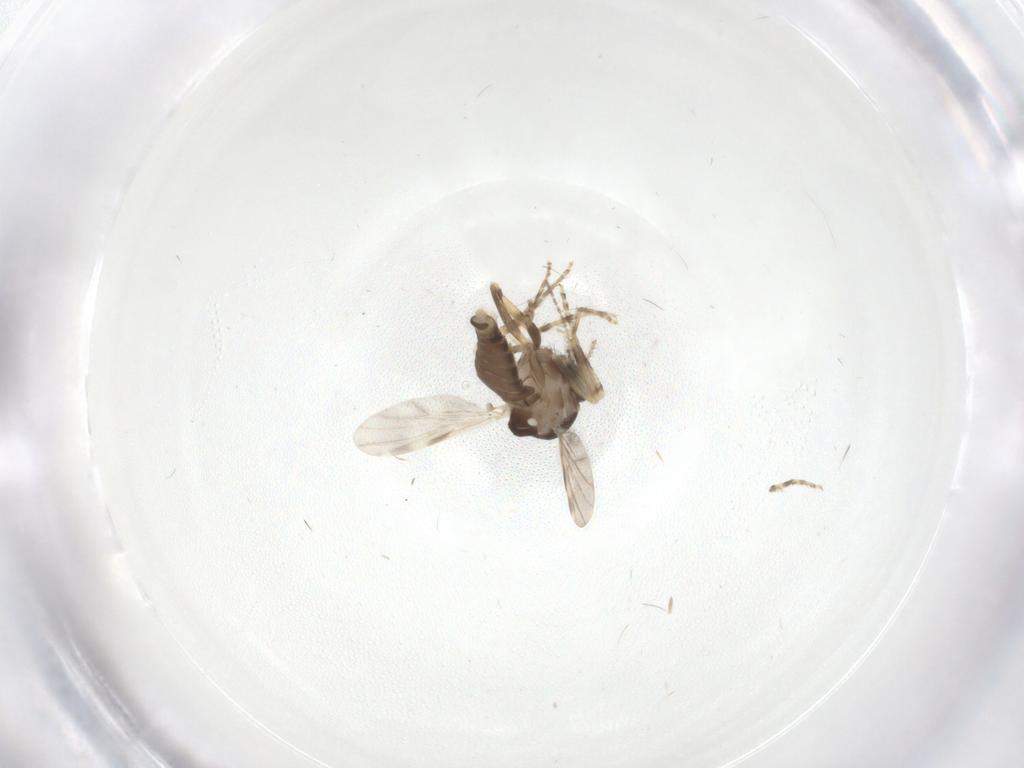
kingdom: Animalia
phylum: Arthropoda
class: Insecta
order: Diptera
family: Ceratopogonidae
